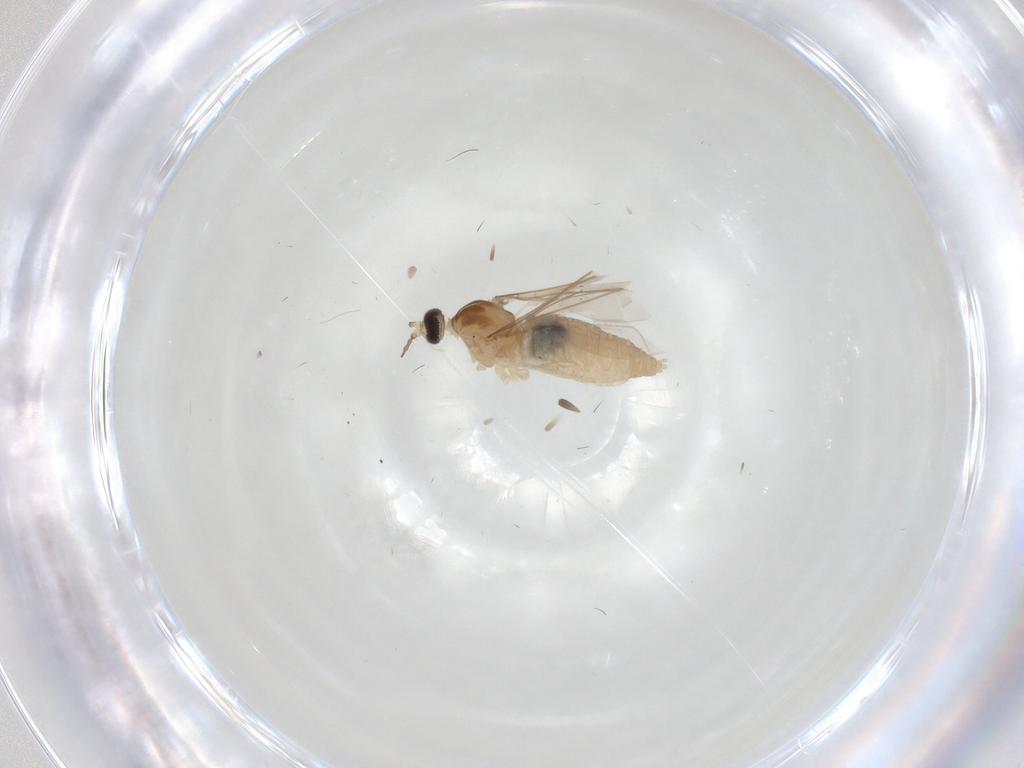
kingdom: Animalia
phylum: Arthropoda
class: Insecta
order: Diptera
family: Cecidomyiidae
